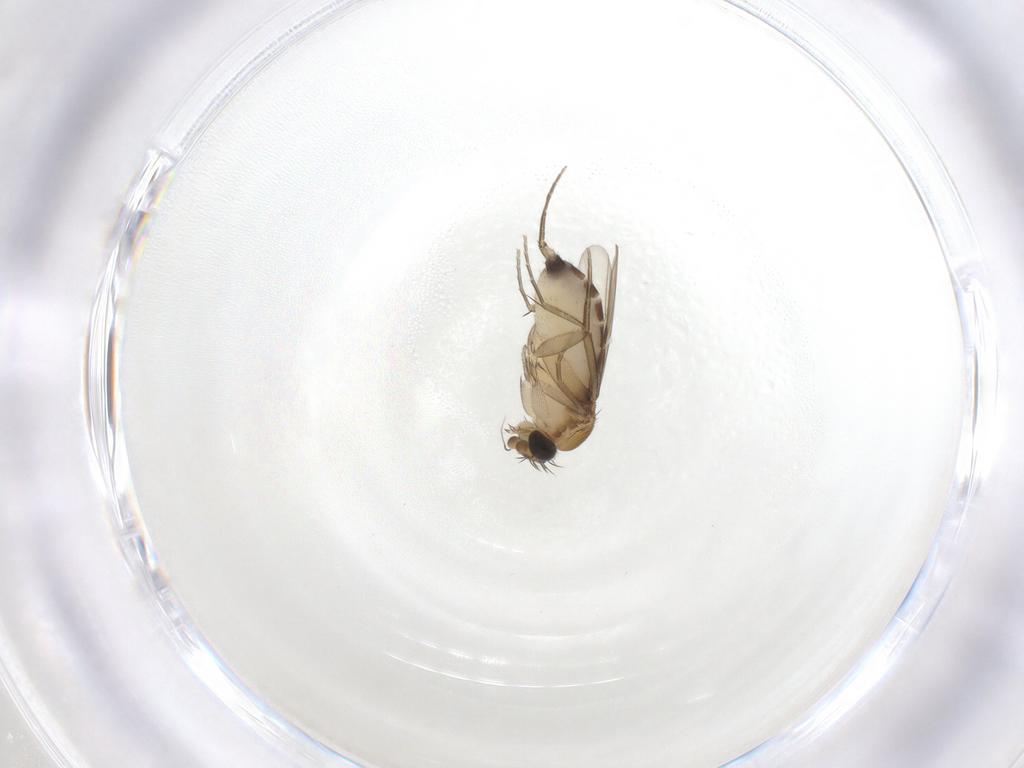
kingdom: Animalia
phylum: Arthropoda
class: Insecta
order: Diptera
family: Phoridae
